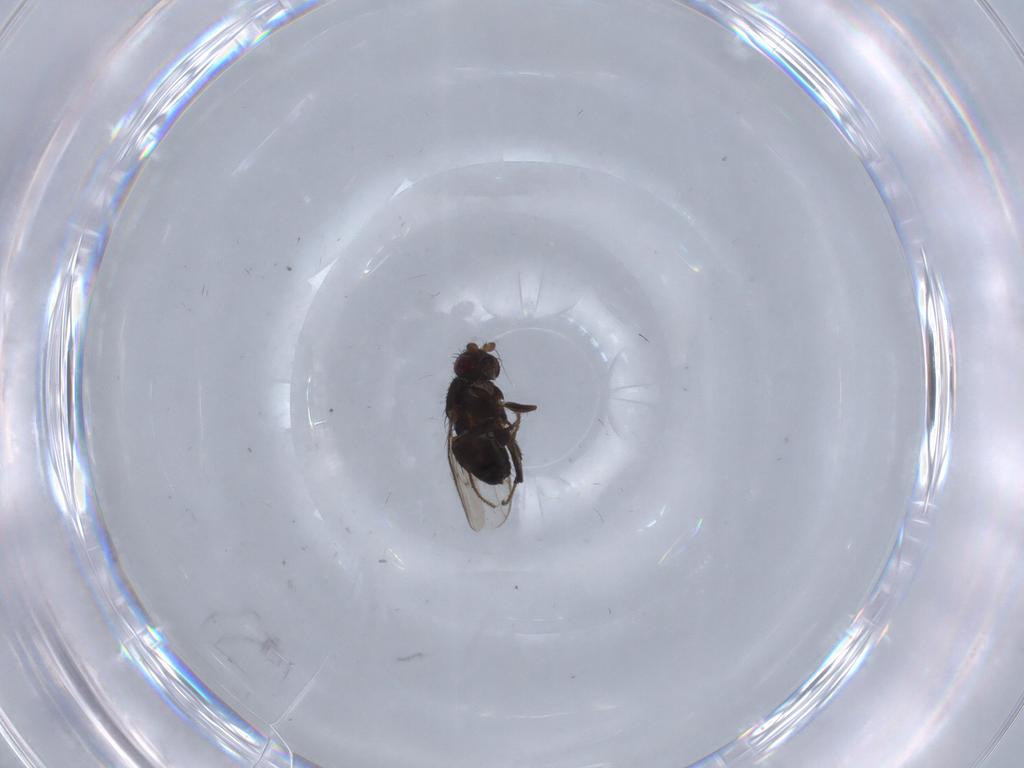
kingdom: Animalia
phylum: Arthropoda
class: Insecta
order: Diptera
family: Sphaeroceridae
